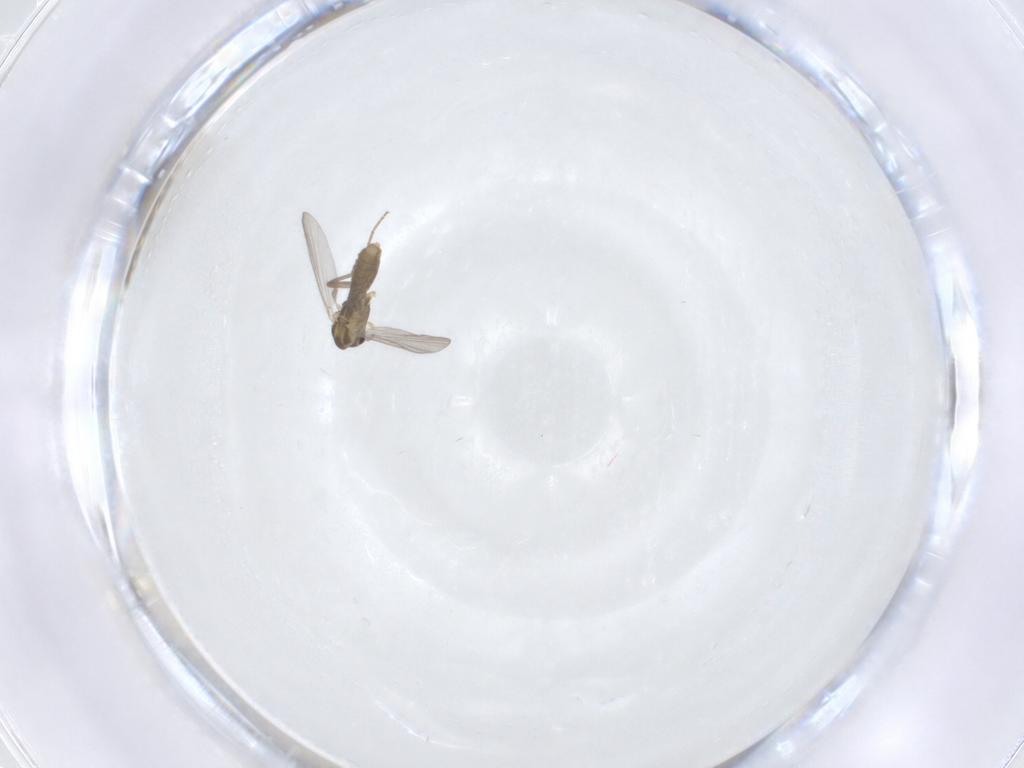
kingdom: Animalia
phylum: Arthropoda
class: Insecta
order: Diptera
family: Chironomidae
